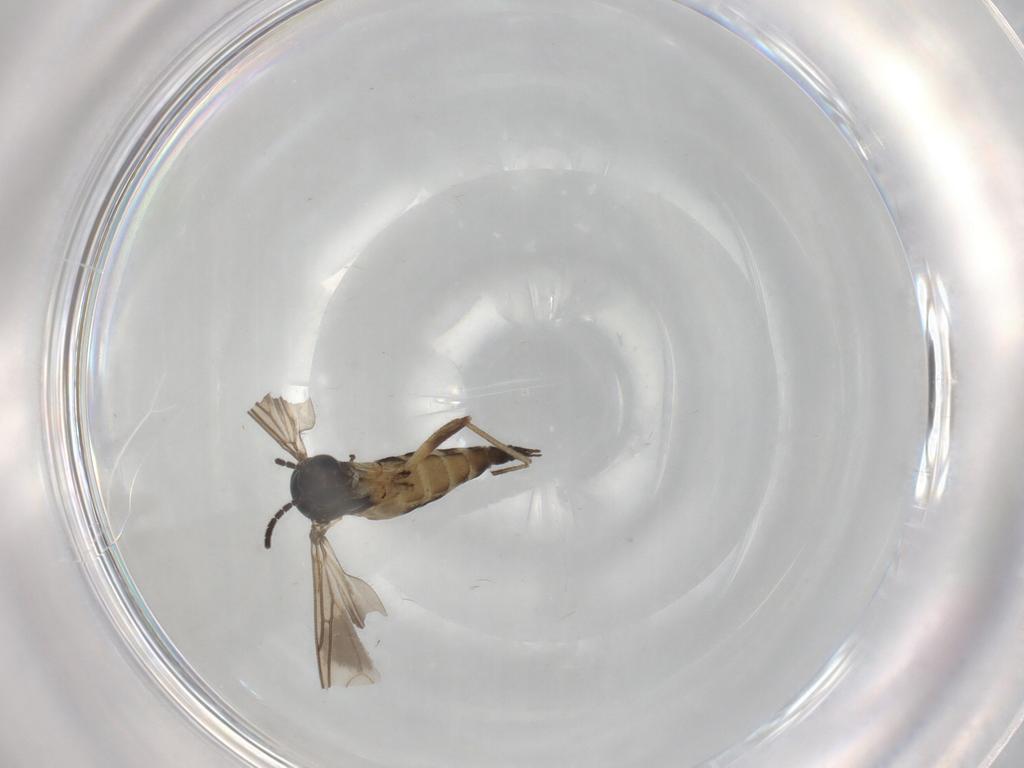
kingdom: Animalia
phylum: Arthropoda
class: Insecta
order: Diptera
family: Sciaridae
